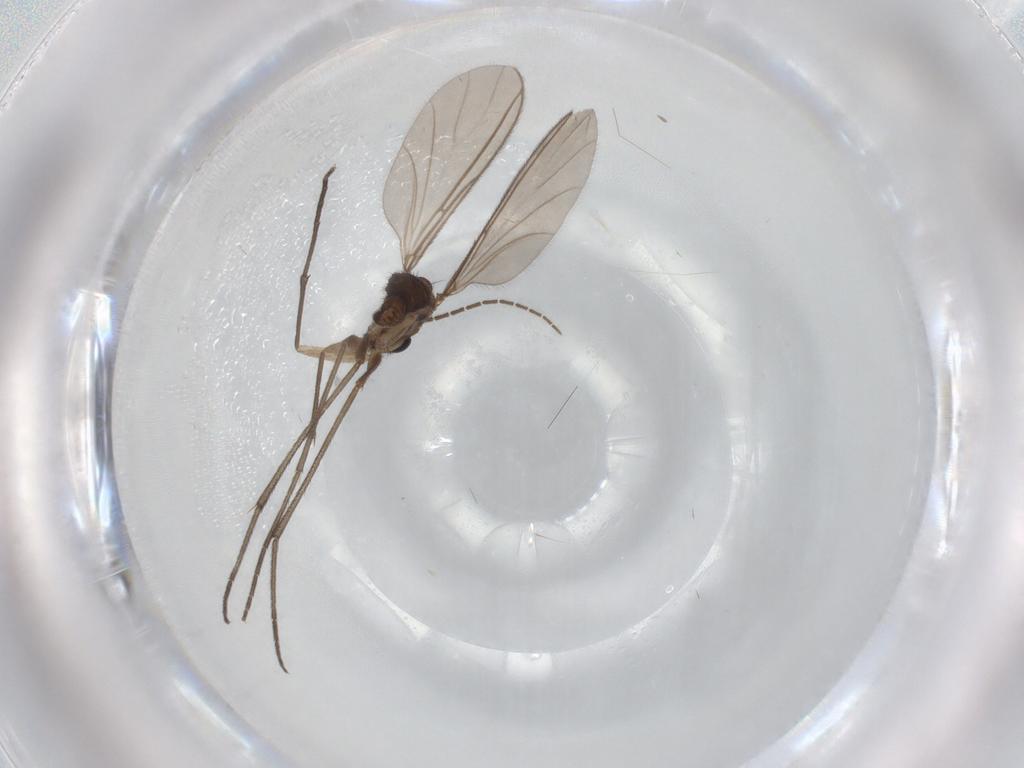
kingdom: Animalia
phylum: Arthropoda
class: Insecta
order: Diptera
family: Sciaridae
